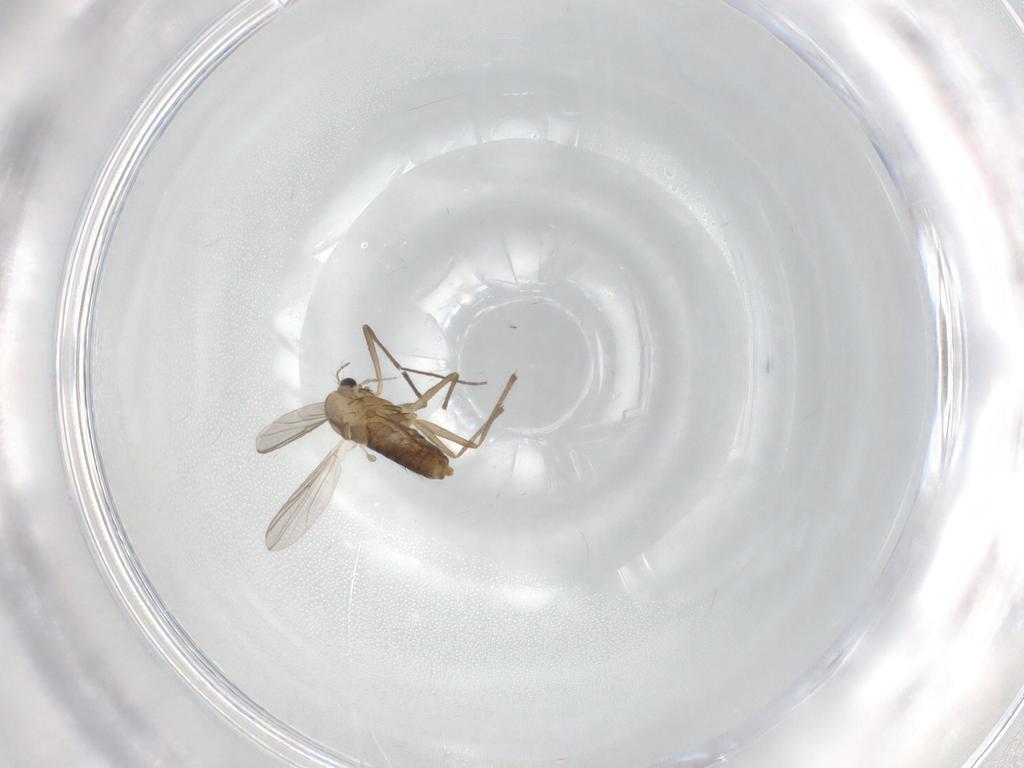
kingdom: Animalia
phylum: Arthropoda
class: Insecta
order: Diptera
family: Chironomidae
